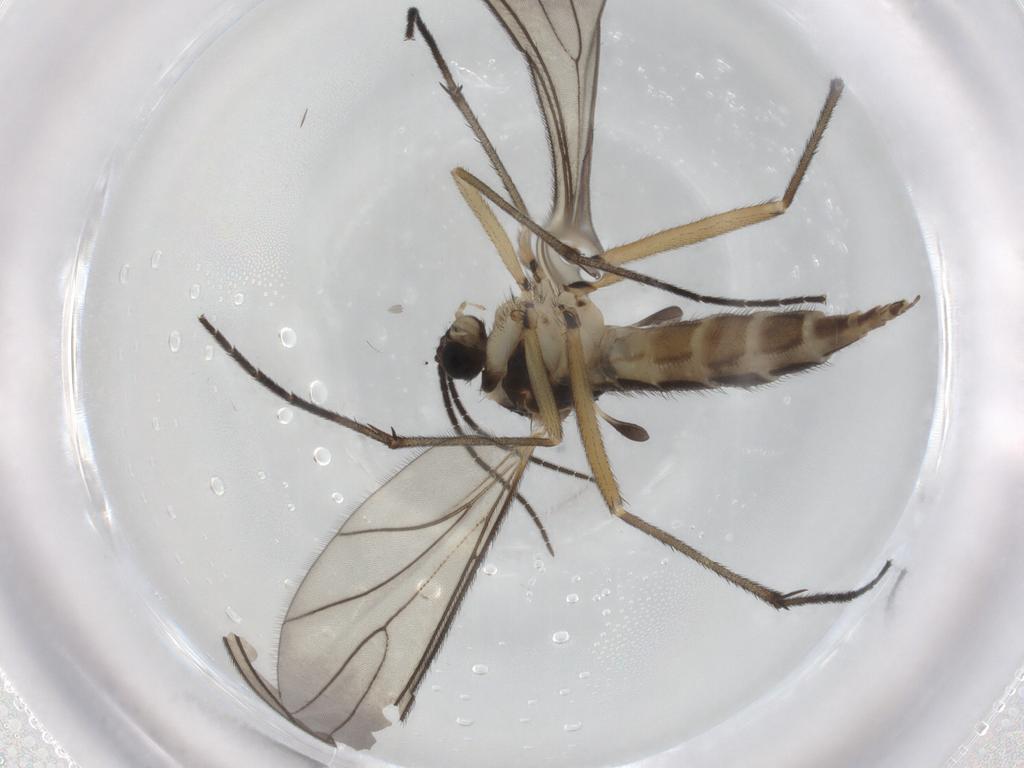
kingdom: Animalia
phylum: Arthropoda
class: Insecta
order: Diptera
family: Sciaridae
